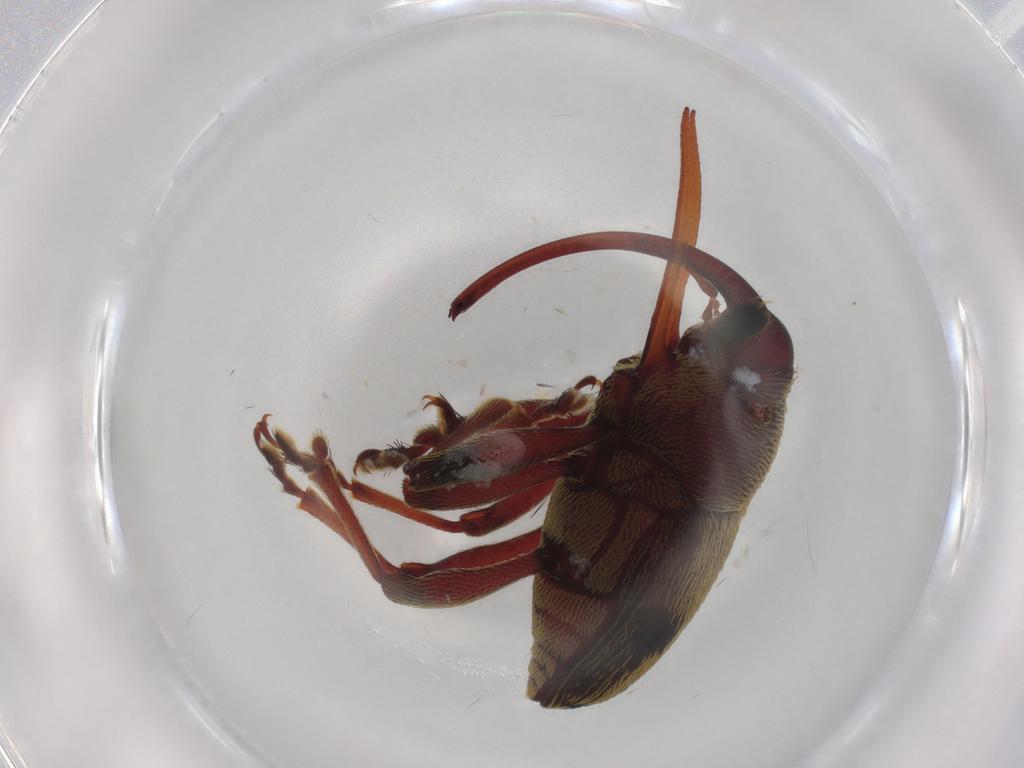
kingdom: Animalia
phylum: Arthropoda
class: Insecta
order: Coleoptera
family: Curculionidae
